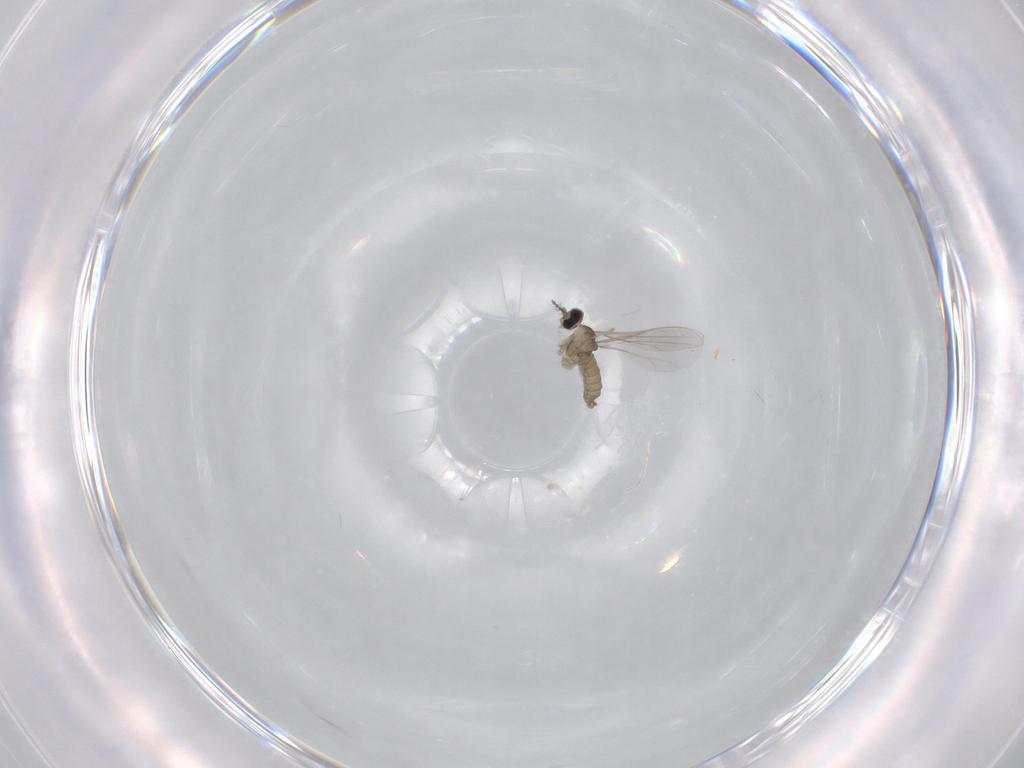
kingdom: Animalia
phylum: Arthropoda
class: Insecta
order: Diptera
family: Cecidomyiidae
